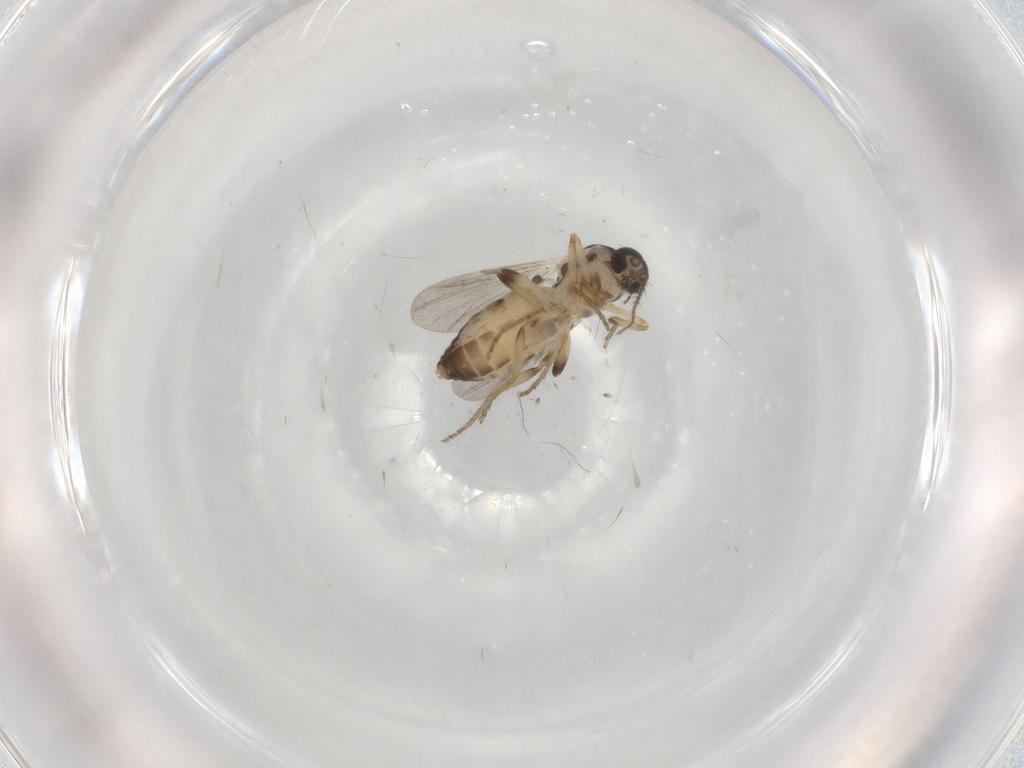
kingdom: Animalia
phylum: Arthropoda
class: Insecta
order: Diptera
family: Ceratopogonidae
